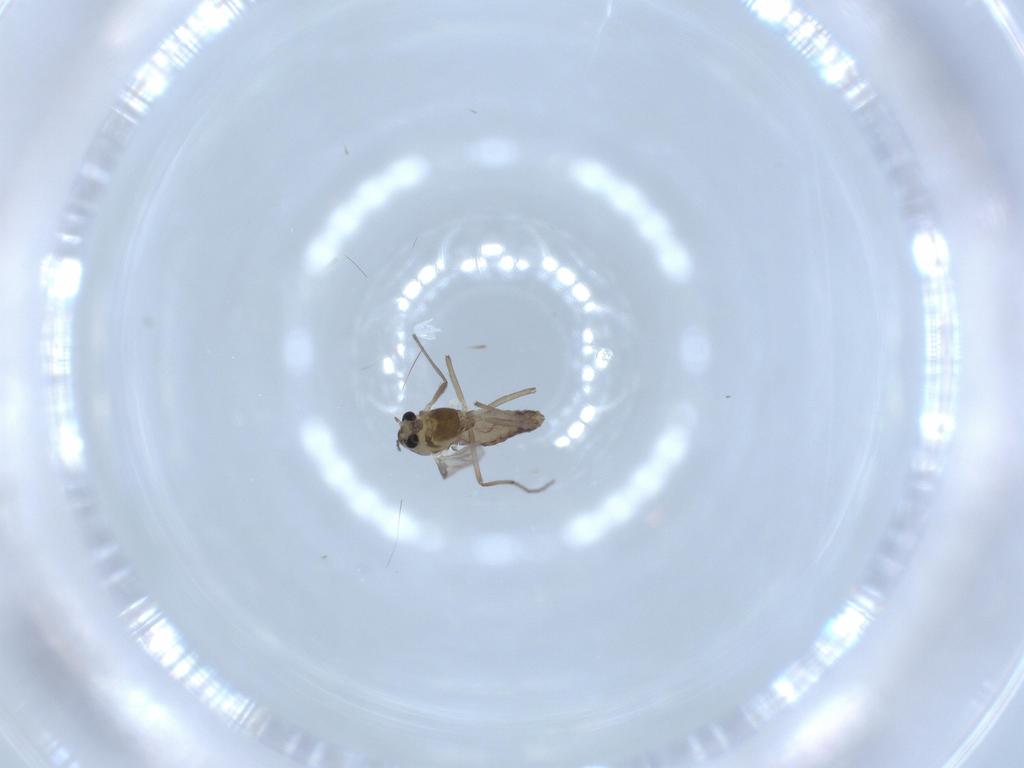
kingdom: Animalia
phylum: Arthropoda
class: Insecta
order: Diptera
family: Chironomidae
